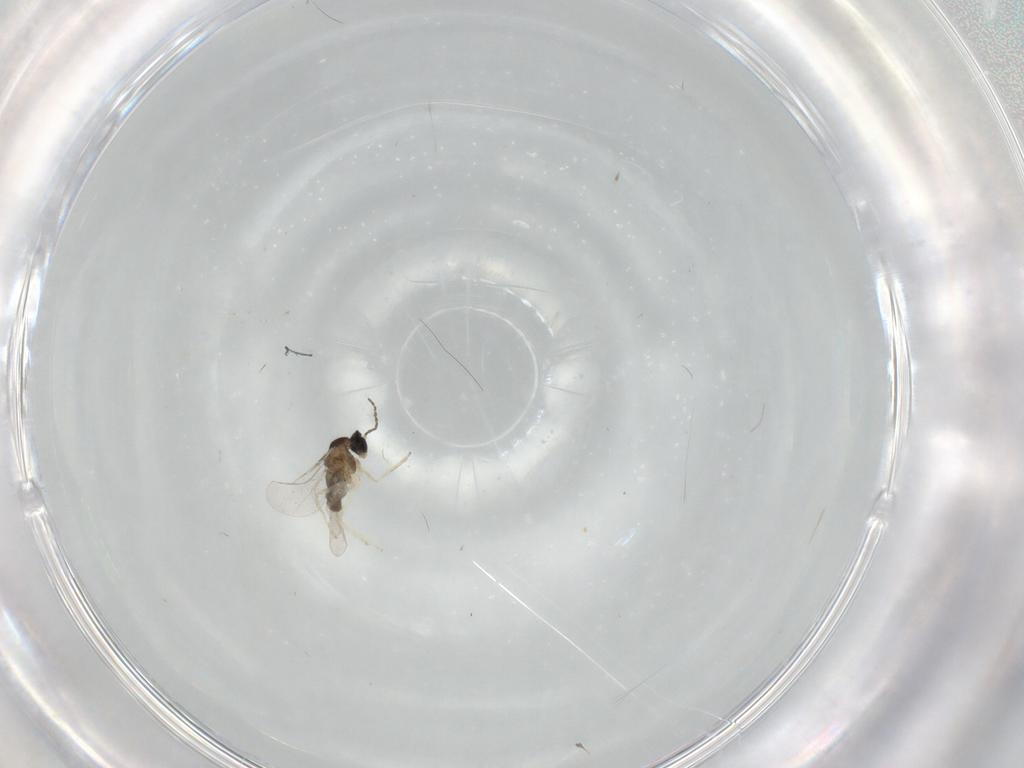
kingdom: Animalia
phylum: Arthropoda
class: Insecta
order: Diptera
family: Cecidomyiidae
